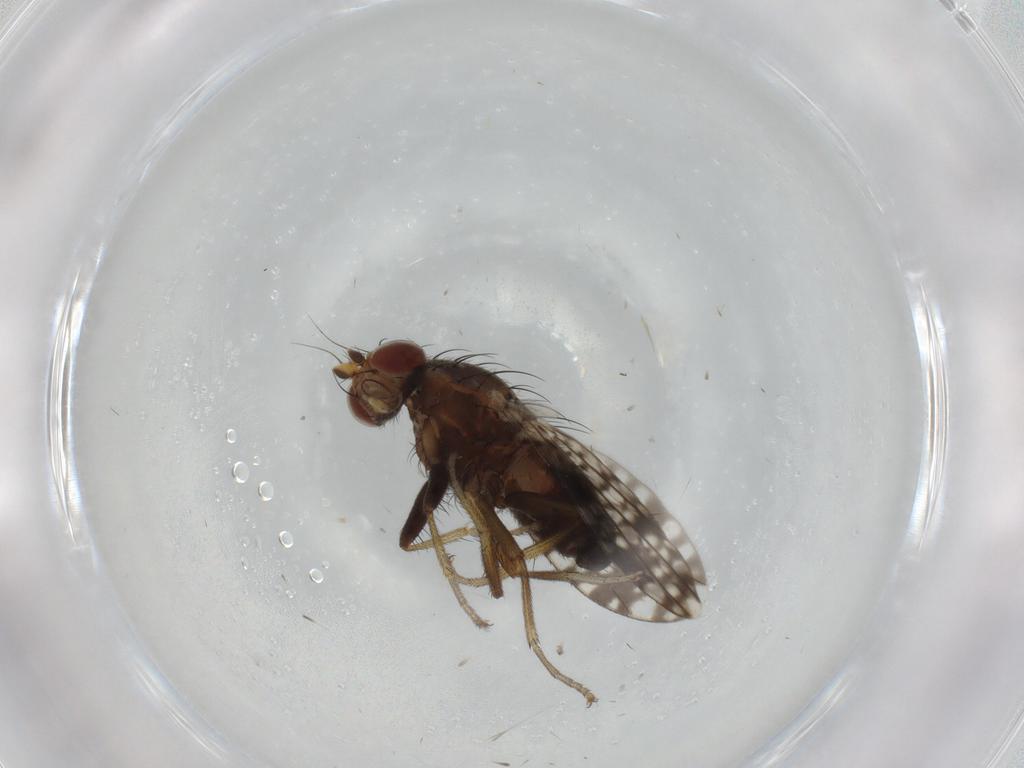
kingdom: Animalia
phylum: Arthropoda
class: Insecta
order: Diptera
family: Tephritidae
